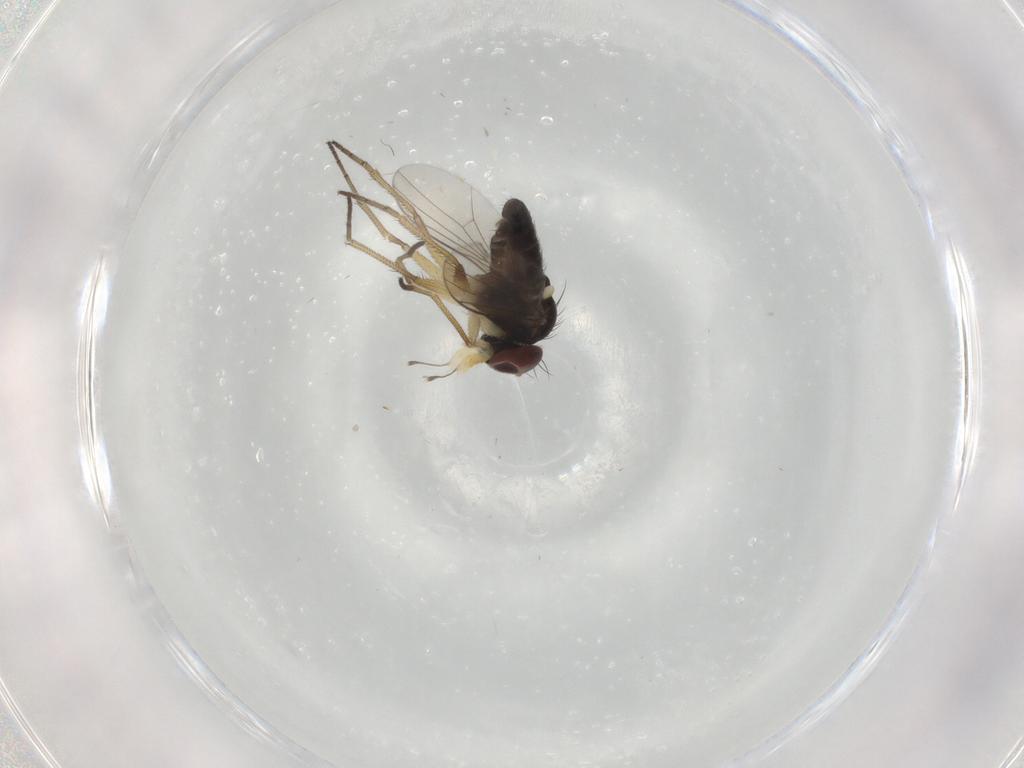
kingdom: Animalia
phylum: Arthropoda
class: Insecta
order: Diptera
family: Dolichopodidae
